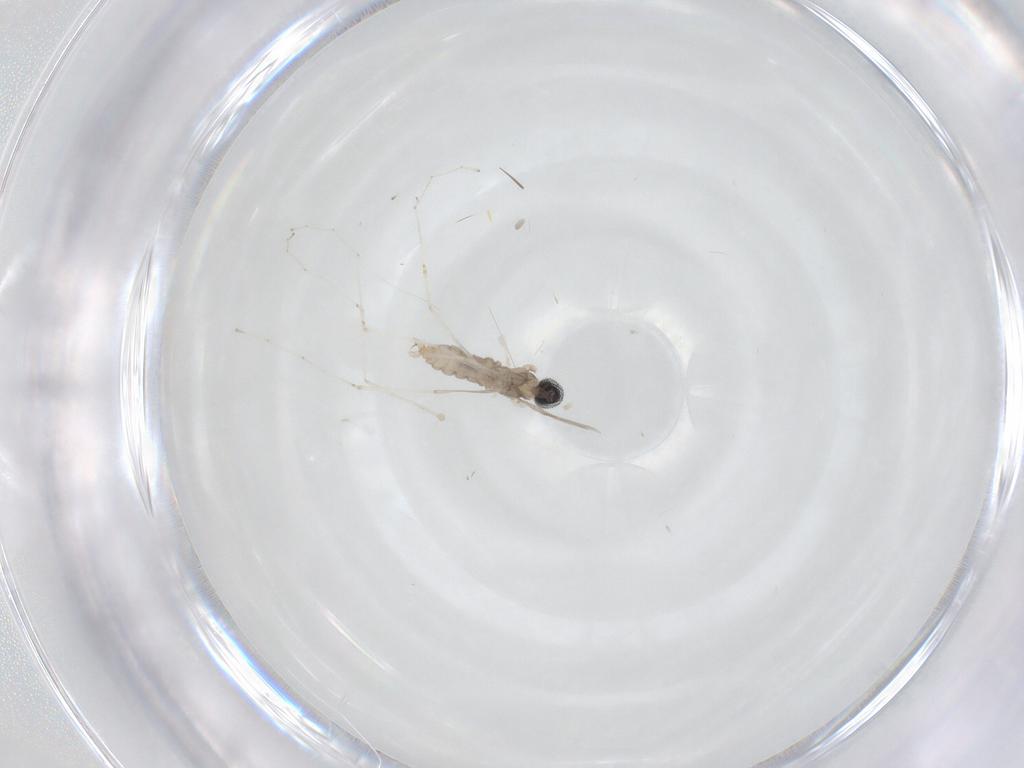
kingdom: Animalia
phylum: Arthropoda
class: Insecta
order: Diptera
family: Cecidomyiidae
